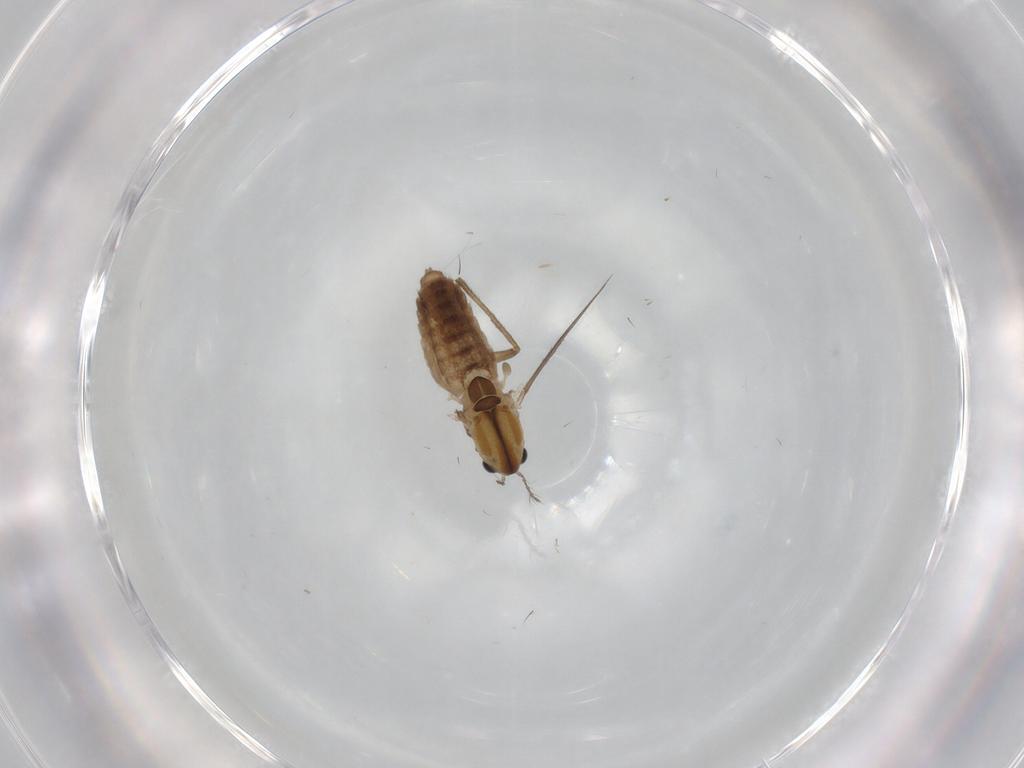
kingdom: Animalia
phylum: Arthropoda
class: Insecta
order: Diptera
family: Chironomidae
